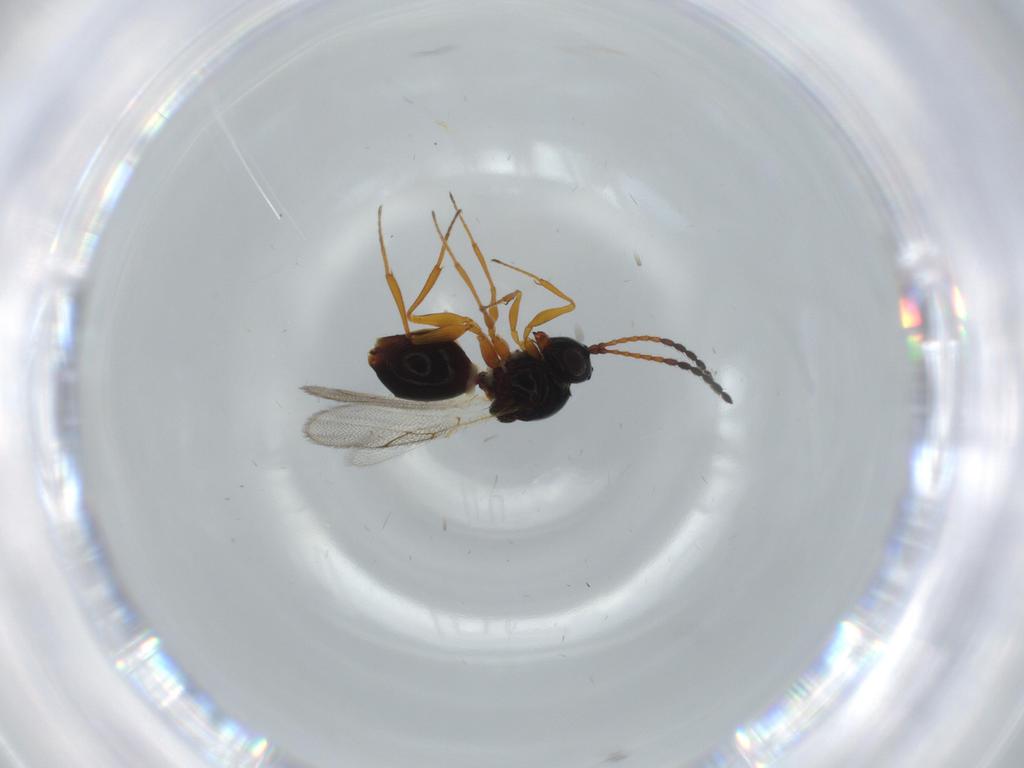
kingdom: Animalia
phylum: Arthropoda
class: Insecta
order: Hymenoptera
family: Figitidae
